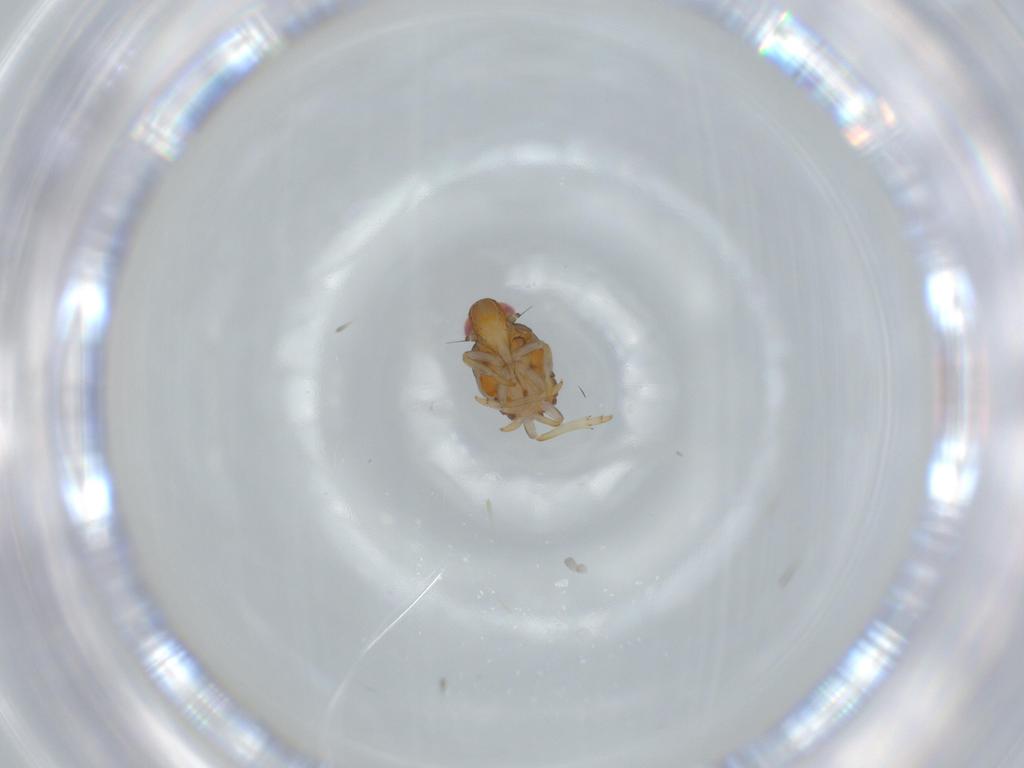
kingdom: Animalia
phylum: Arthropoda
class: Insecta
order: Hemiptera
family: Issidae
